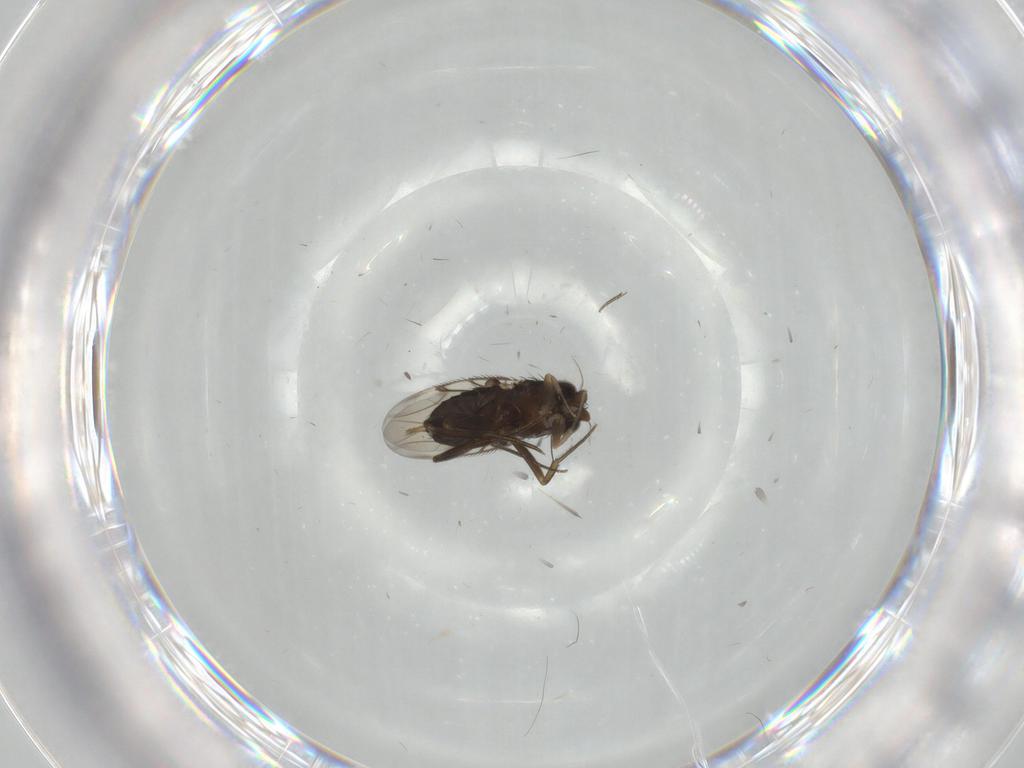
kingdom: Animalia
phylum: Arthropoda
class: Insecta
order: Diptera
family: Phoridae
